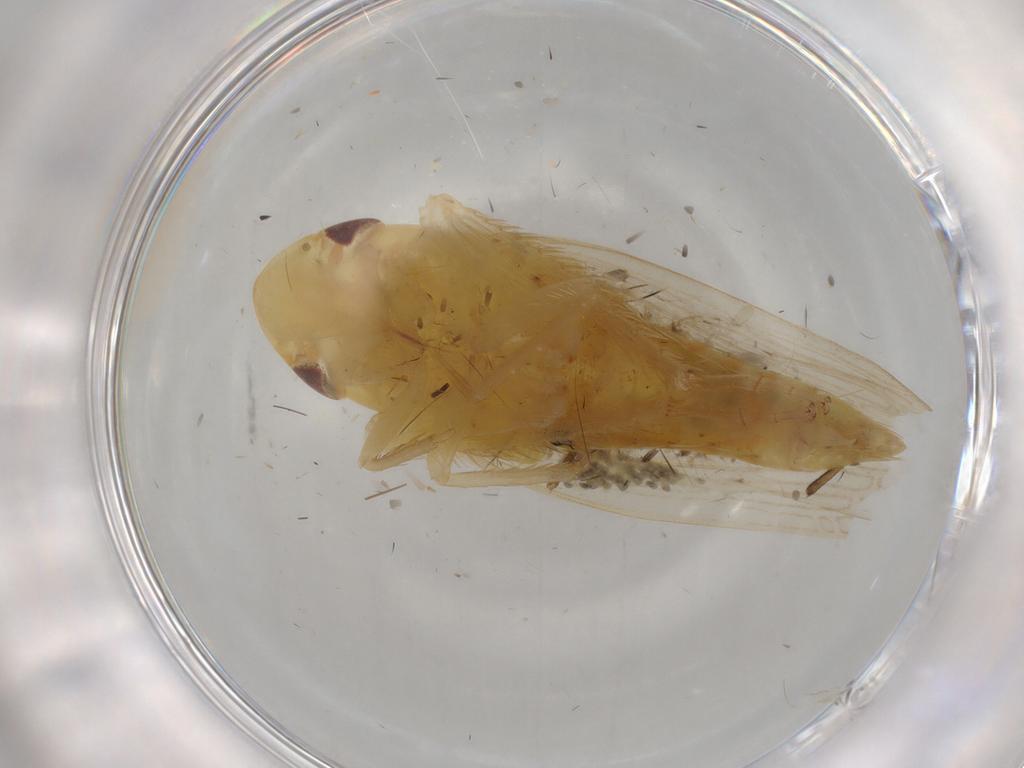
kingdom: Animalia
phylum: Arthropoda
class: Insecta
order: Hemiptera
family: Cicadellidae
